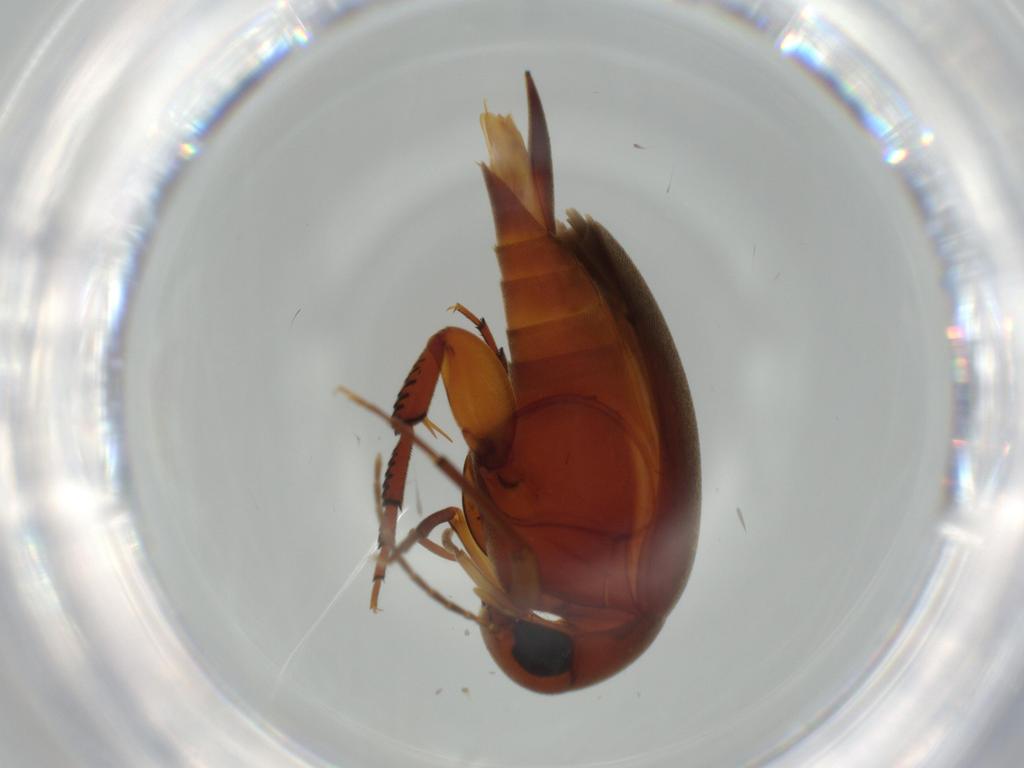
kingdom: Animalia
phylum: Arthropoda
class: Insecta
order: Coleoptera
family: Mordellidae
